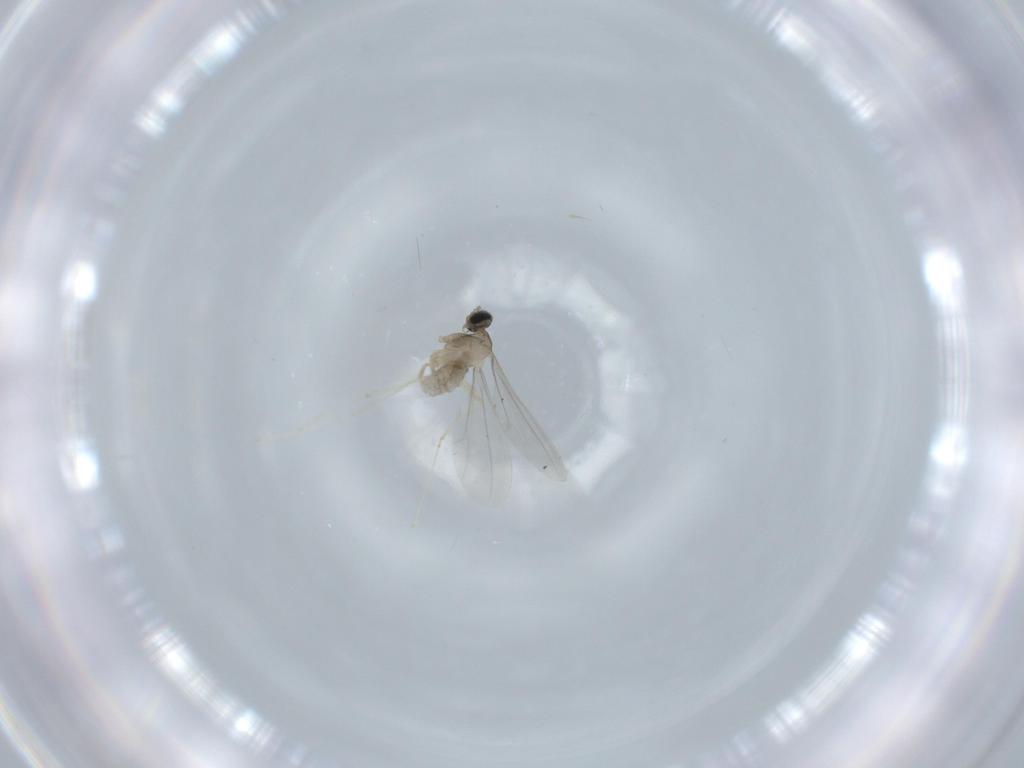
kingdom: Animalia
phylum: Arthropoda
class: Insecta
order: Diptera
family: Cecidomyiidae
